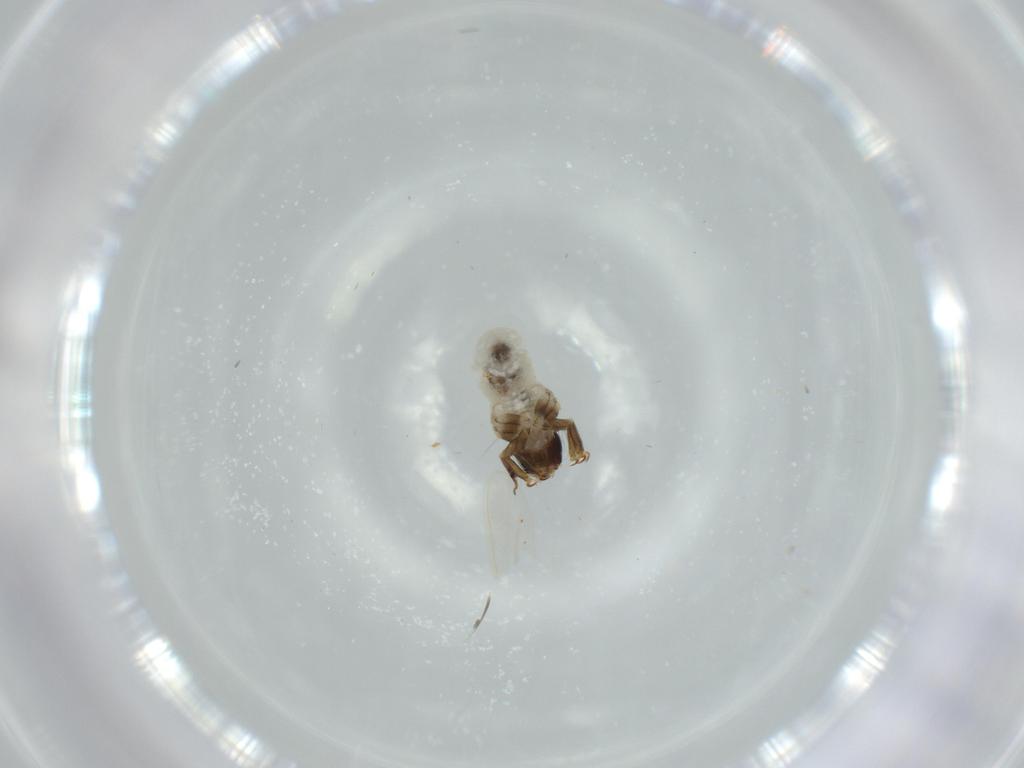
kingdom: Animalia
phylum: Arthropoda
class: Insecta
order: Coleoptera
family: Chrysomelidae
